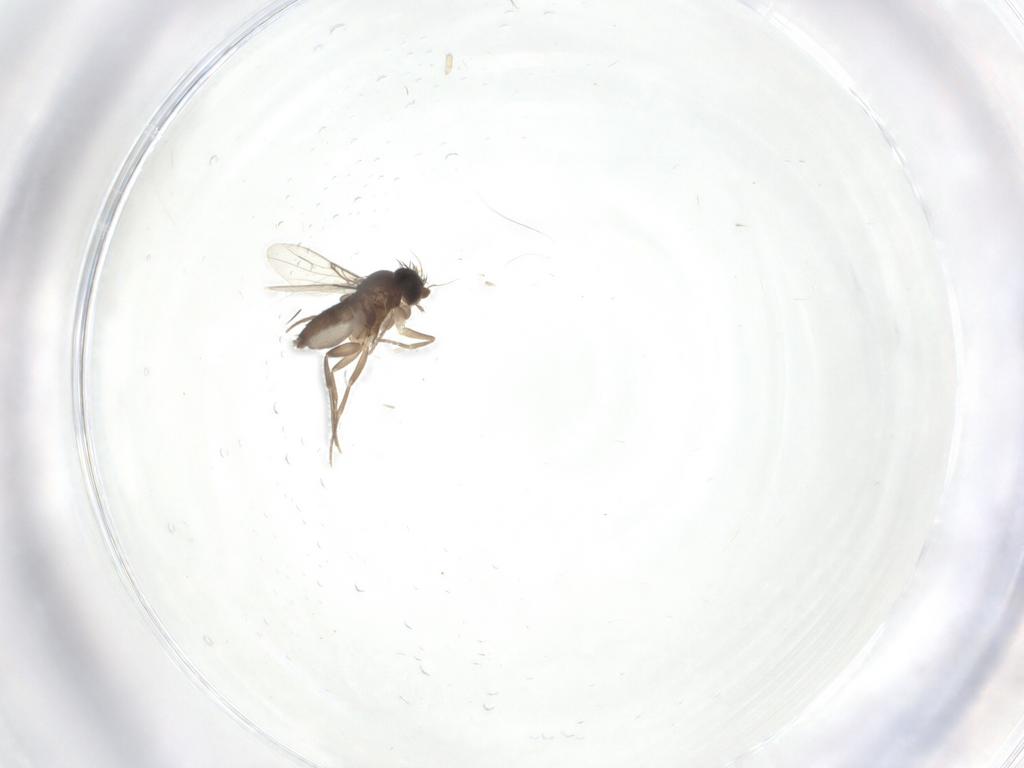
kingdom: Animalia
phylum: Arthropoda
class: Insecta
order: Diptera
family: Phoridae
